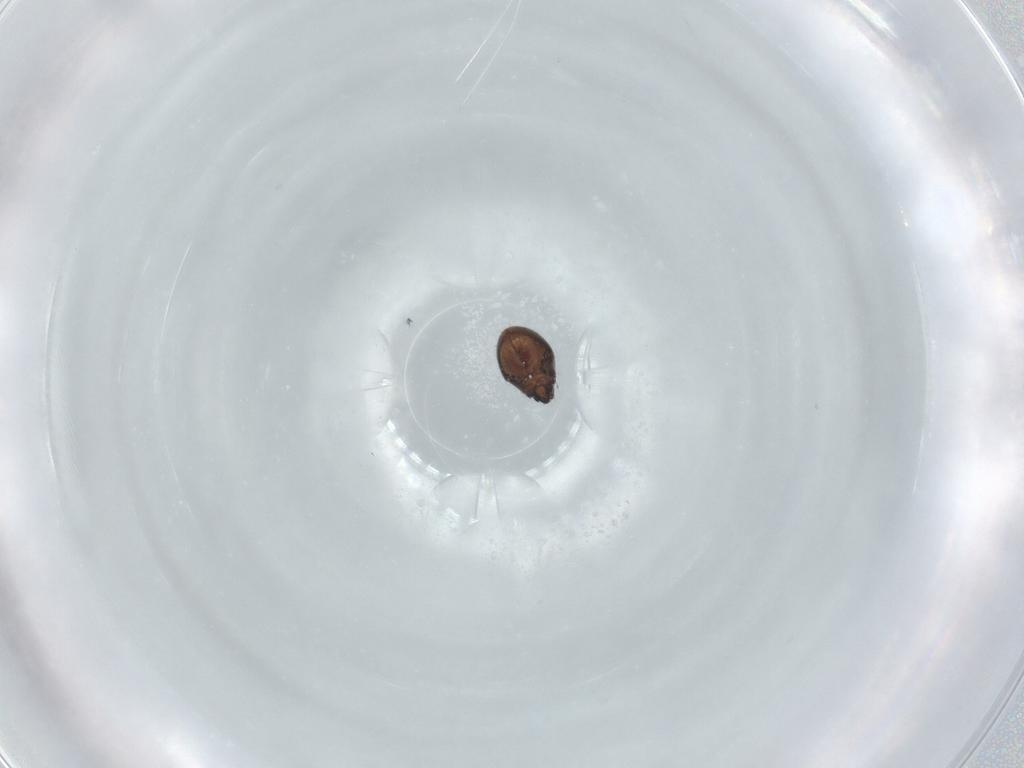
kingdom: Animalia
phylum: Arthropoda
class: Arachnida
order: Sarcoptiformes
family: Ceratozetidae
